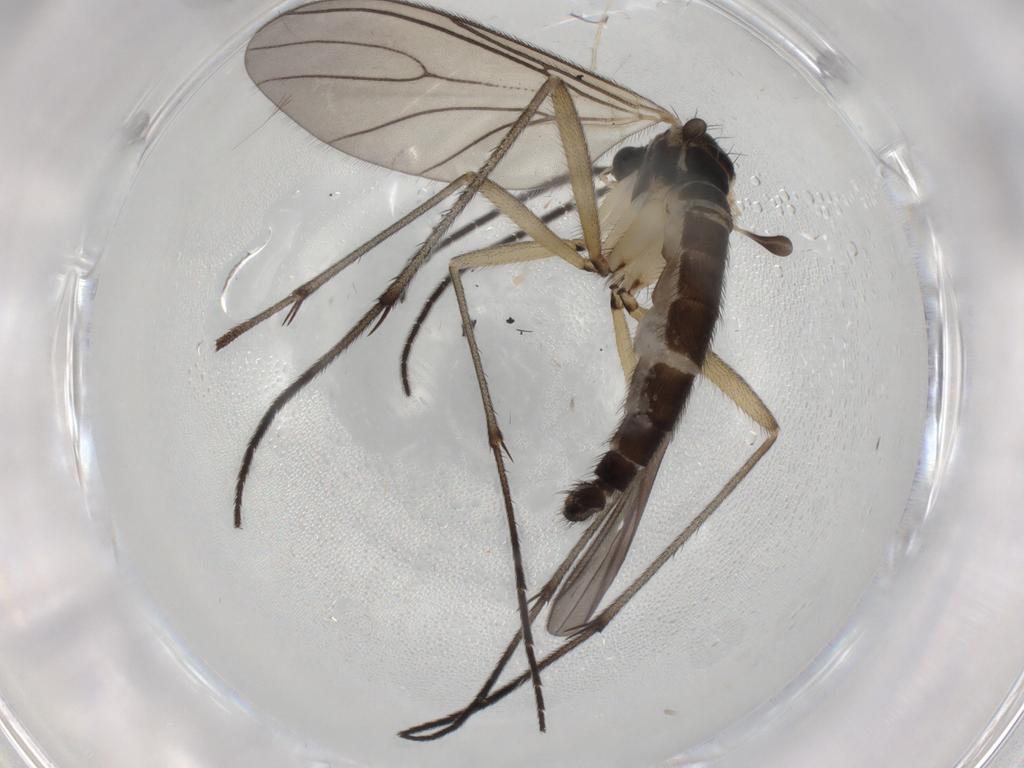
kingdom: Animalia
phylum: Arthropoda
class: Insecta
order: Diptera
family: Sciaridae
